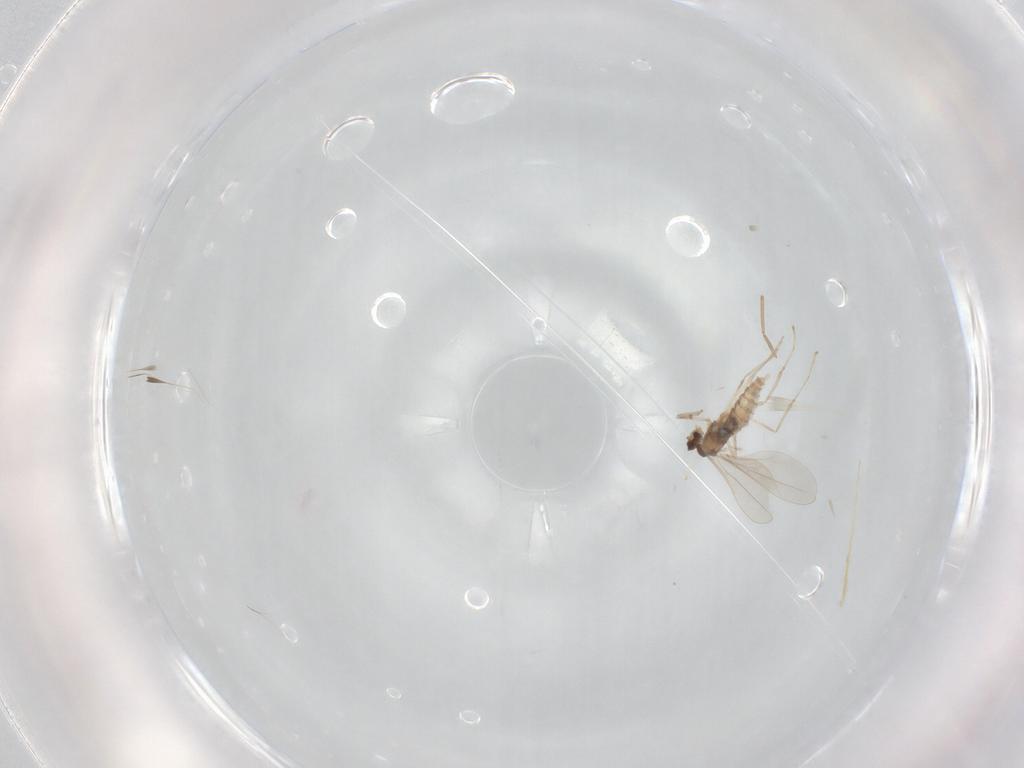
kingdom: Animalia
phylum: Arthropoda
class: Insecta
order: Diptera
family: Cecidomyiidae
